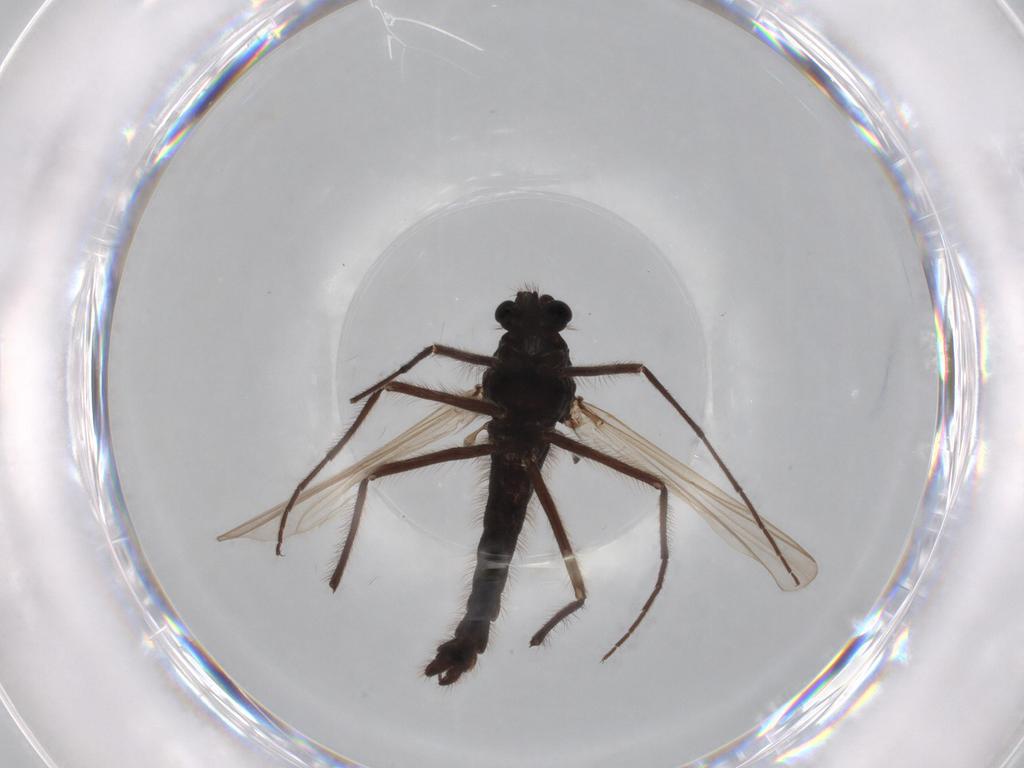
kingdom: Animalia
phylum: Arthropoda
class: Insecta
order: Diptera
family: Sphaeroceridae
